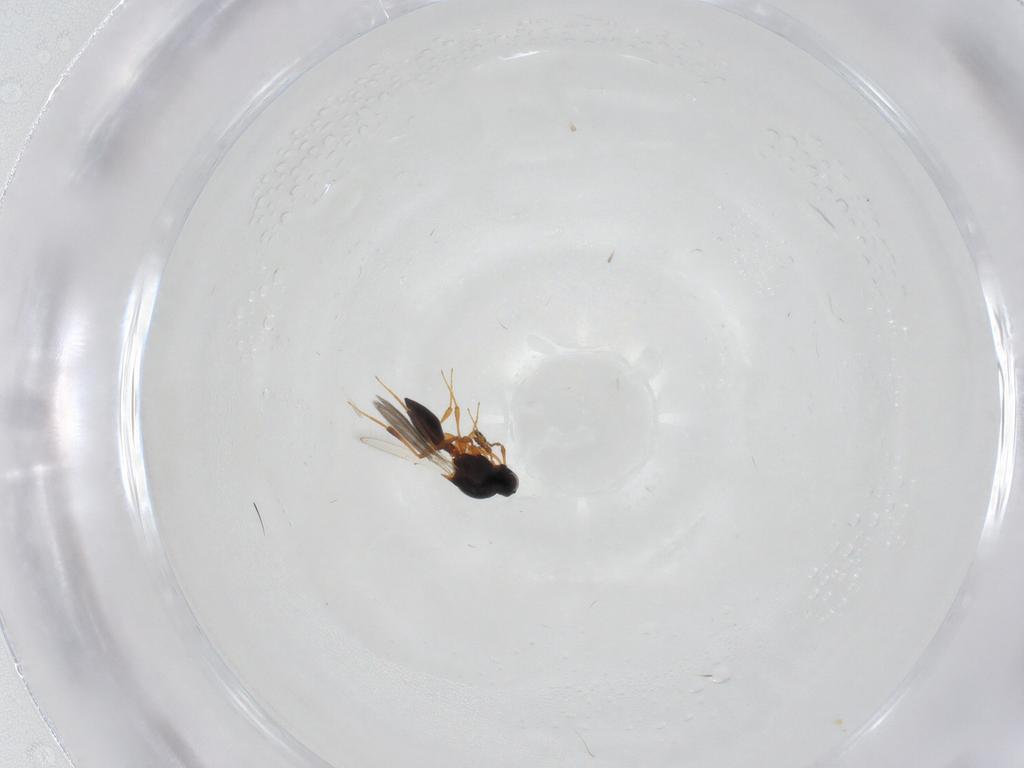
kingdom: Animalia
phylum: Arthropoda
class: Insecta
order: Hymenoptera
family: Platygastridae
